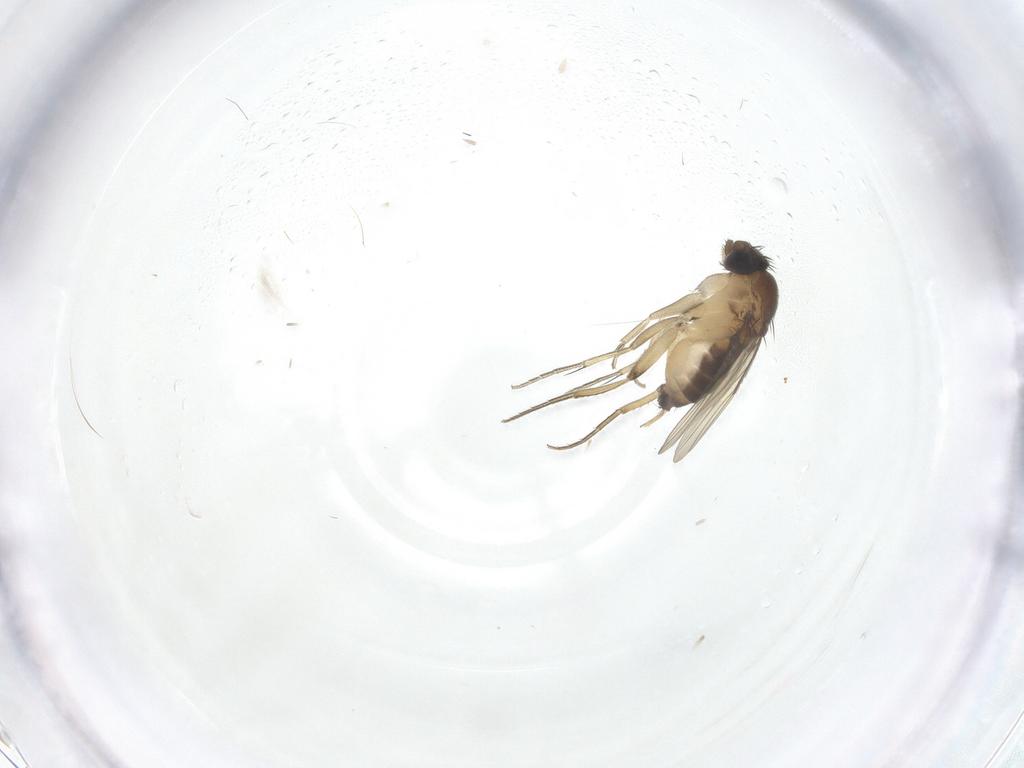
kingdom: Animalia
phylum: Arthropoda
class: Insecta
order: Diptera
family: Phoridae
